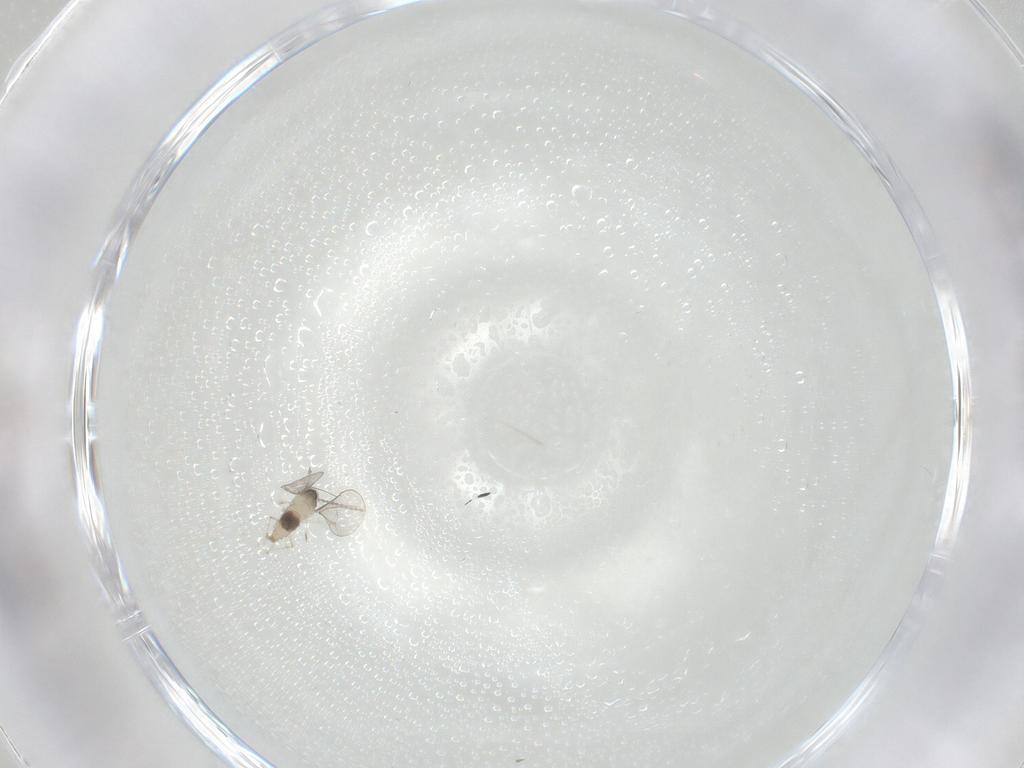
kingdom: Animalia
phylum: Arthropoda
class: Insecta
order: Diptera
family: Cecidomyiidae
